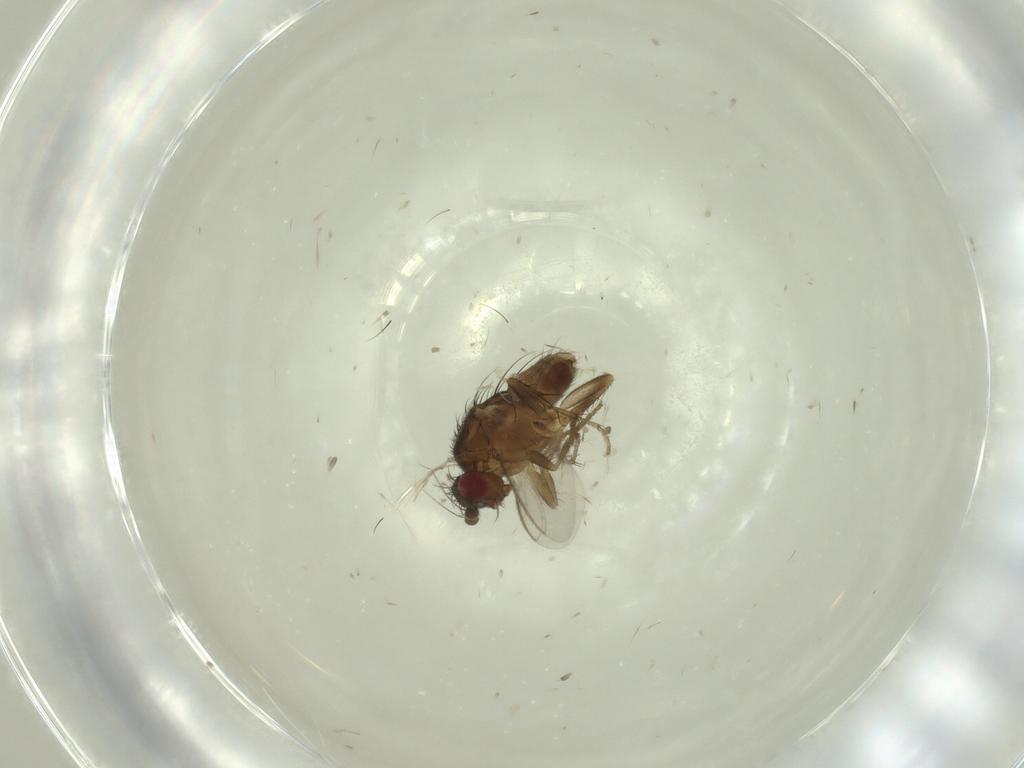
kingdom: Animalia
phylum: Arthropoda
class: Insecta
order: Diptera
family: Sphaeroceridae
